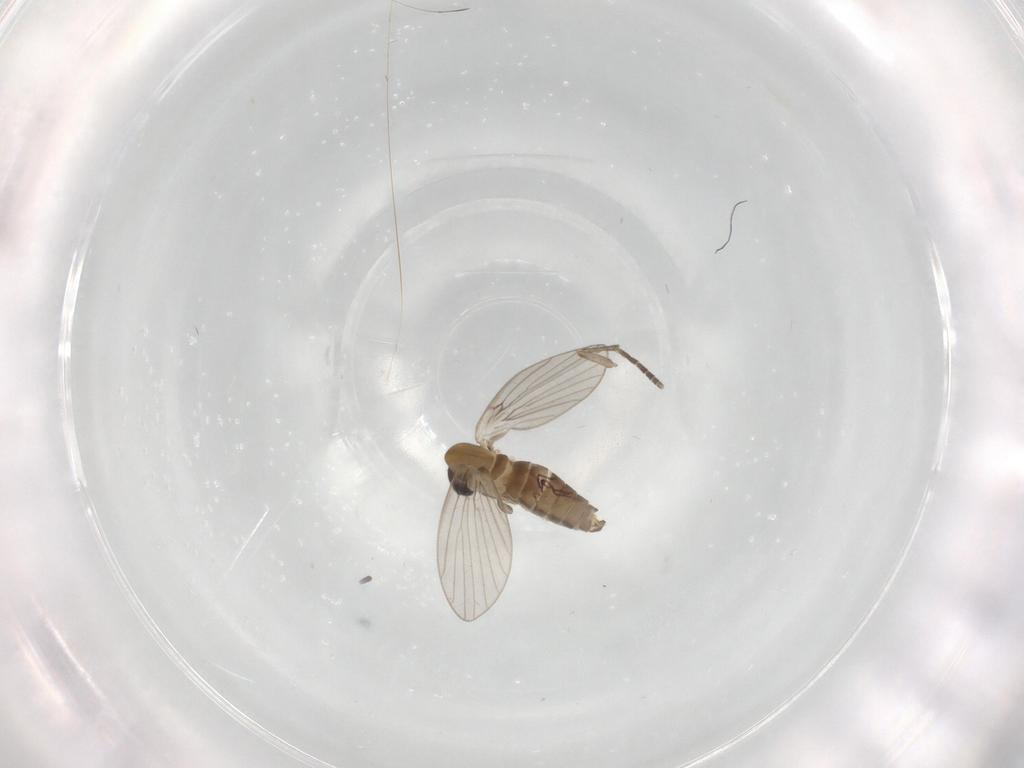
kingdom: Animalia
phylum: Arthropoda
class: Insecta
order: Diptera
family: Psychodidae
